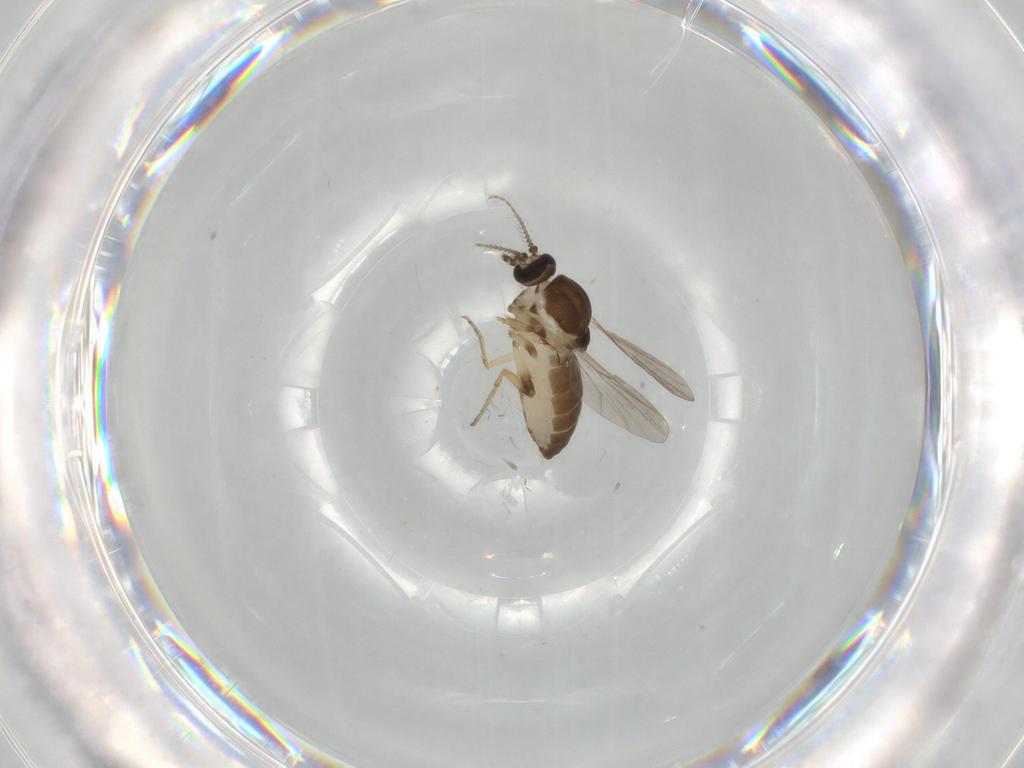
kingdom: Animalia
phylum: Arthropoda
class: Insecta
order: Diptera
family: Ceratopogonidae
